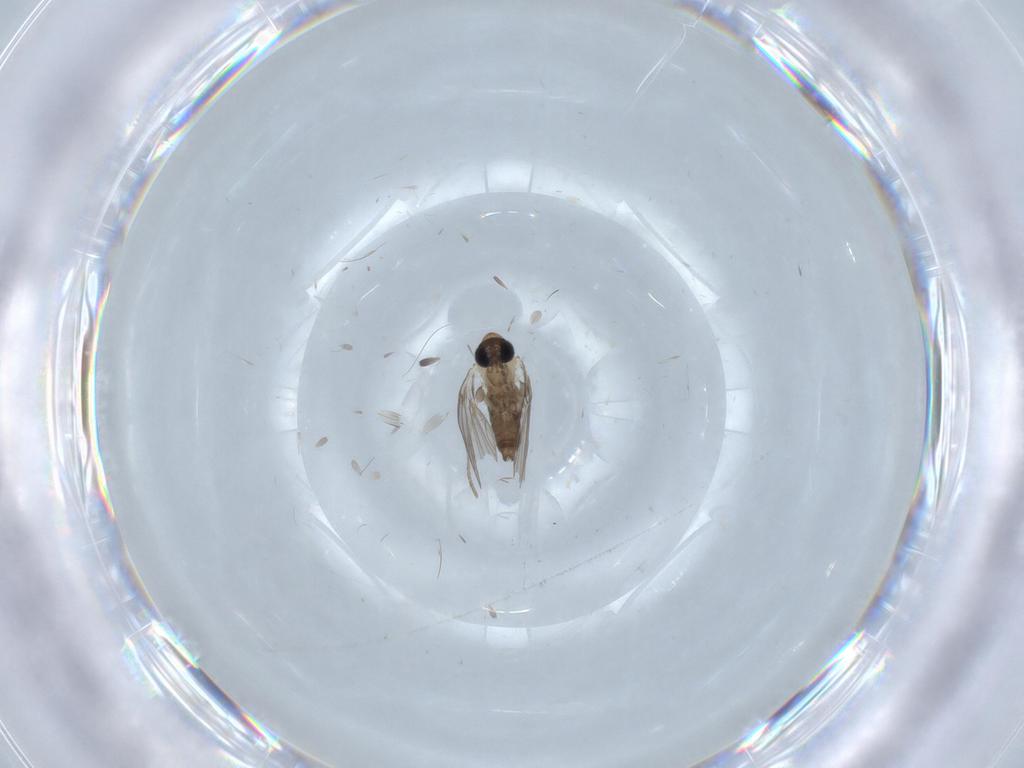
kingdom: Animalia
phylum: Arthropoda
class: Insecta
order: Diptera
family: Psychodidae
